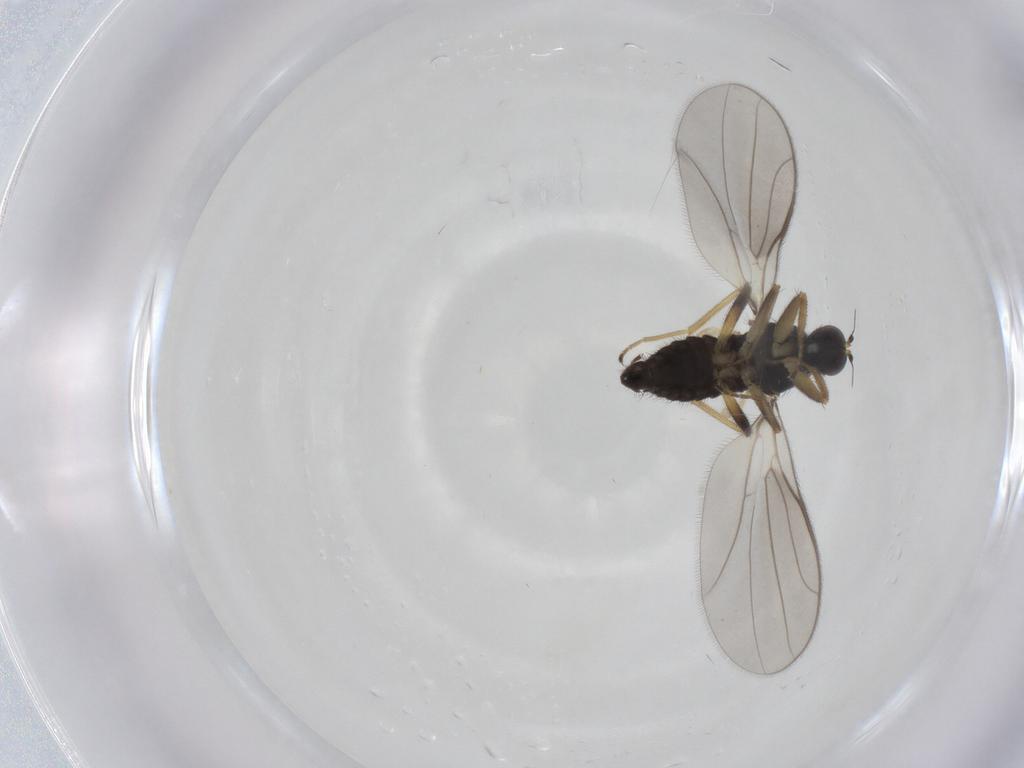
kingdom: Animalia
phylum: Arthropoda
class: Insecta
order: Diptera
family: Hybotidae
